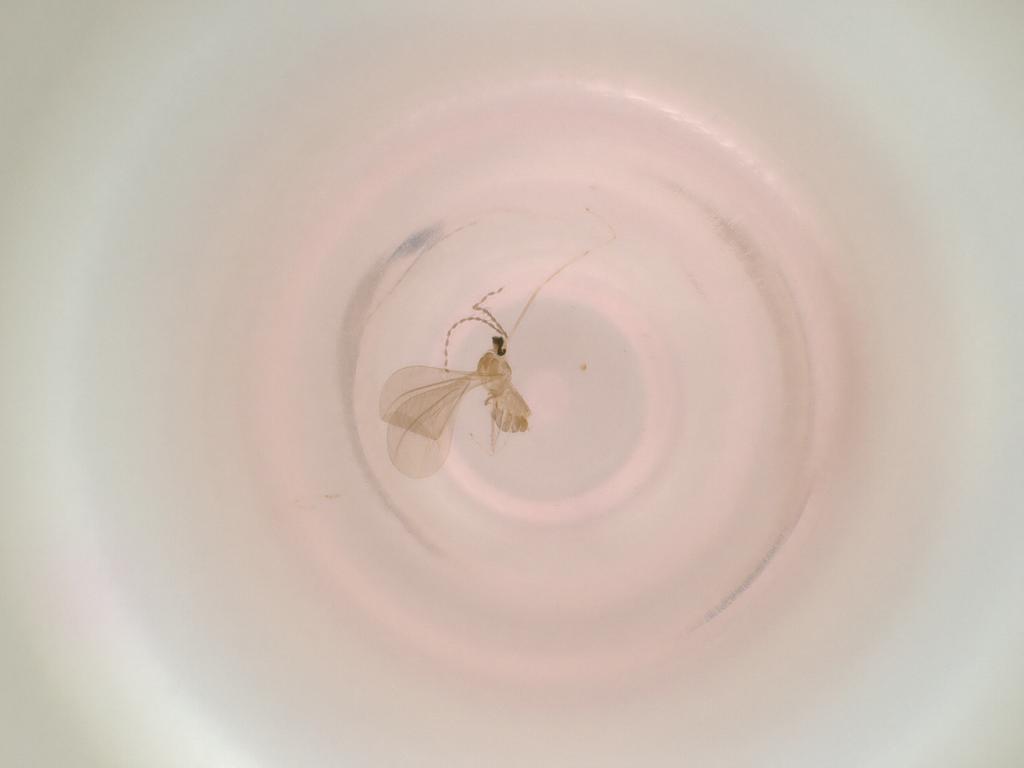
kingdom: Animalia
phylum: Arthropoda
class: Insecta
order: Diptera
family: Cecidomyiidae
